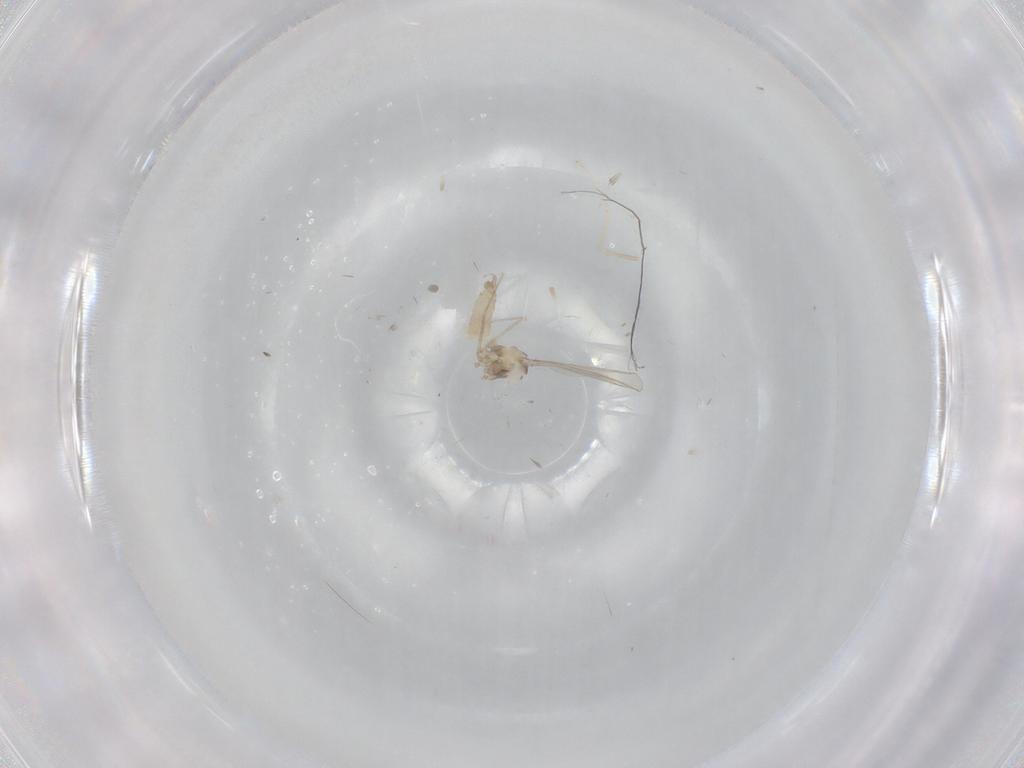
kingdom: Animalia
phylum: Arthropoda
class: Insecta
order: Diptera
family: Cecidomyiidae
